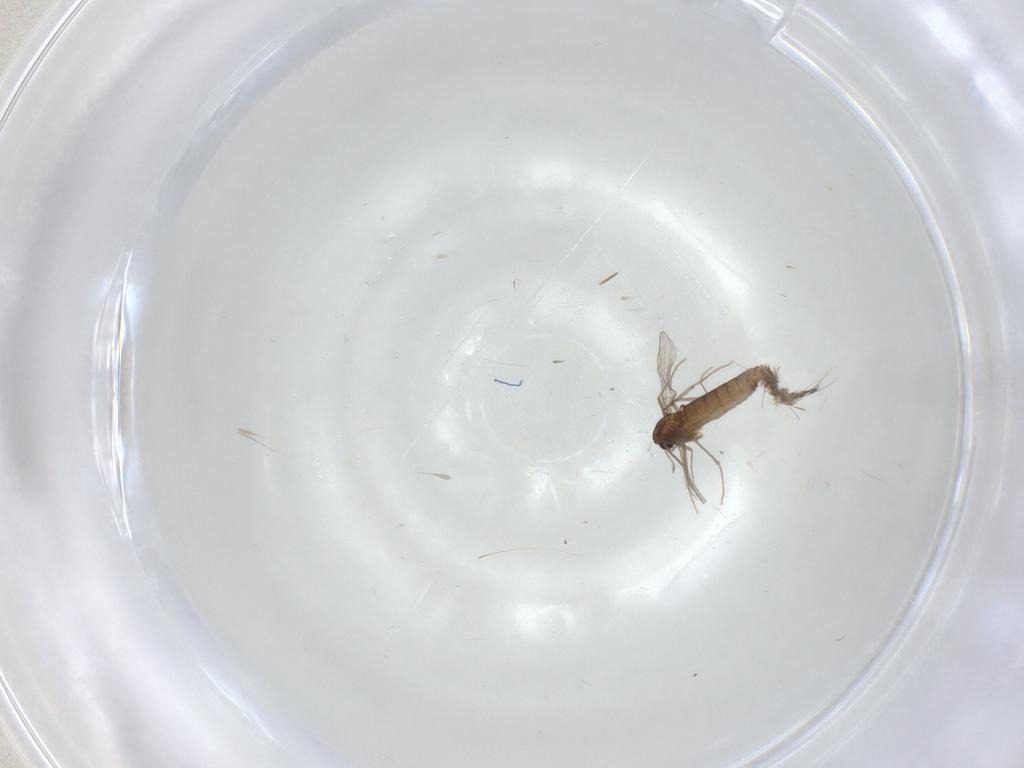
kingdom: Animalia
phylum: Arthropoda
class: Insecta
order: Diptera
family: Chironomidae
